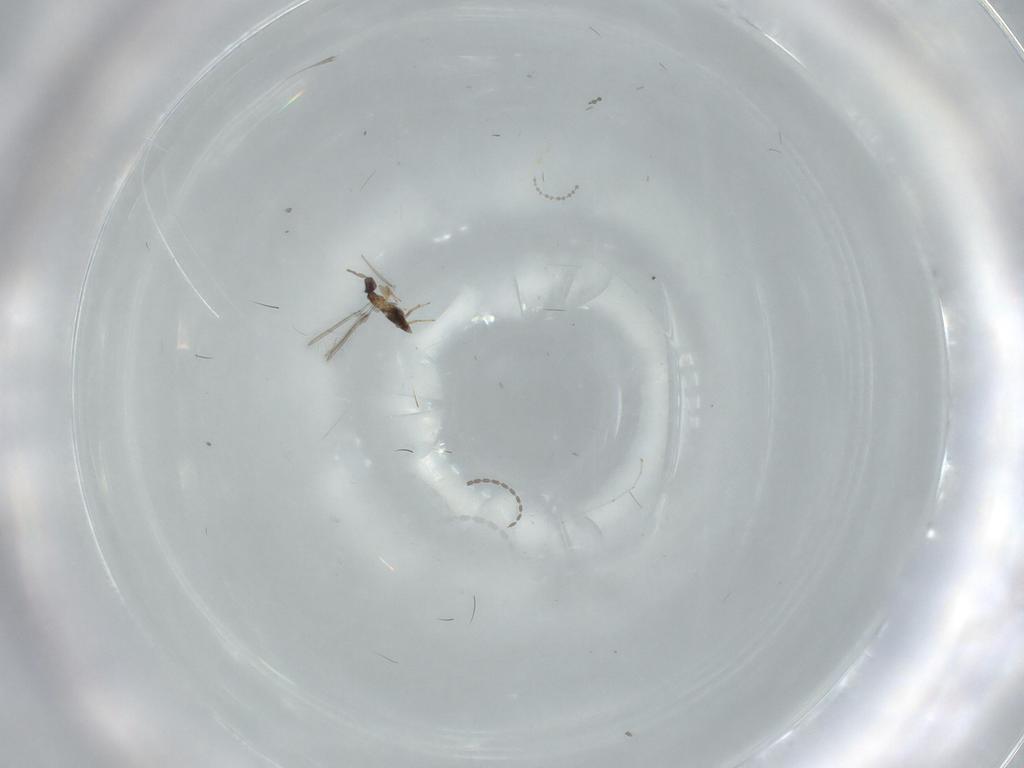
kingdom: Animalia
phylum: Arthropoda
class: Insecta
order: Hymenoptera
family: Mymaridae
